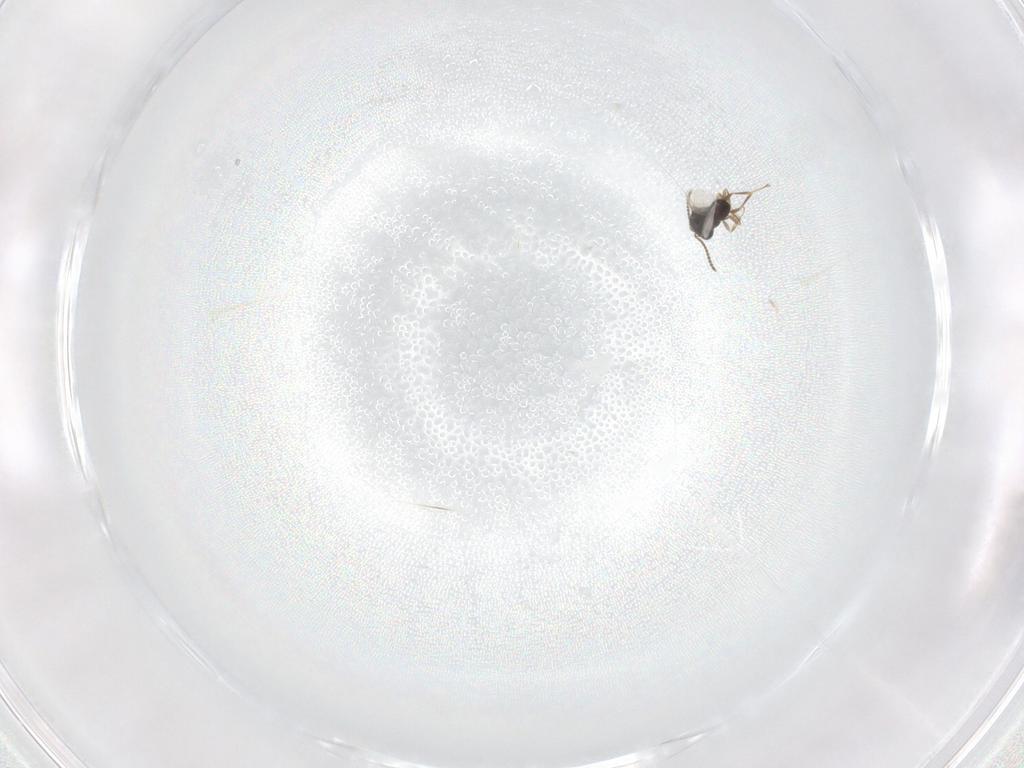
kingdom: Animalia
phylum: Arthropoda
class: Insecta
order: Hymenoptera
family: Scelionidae
